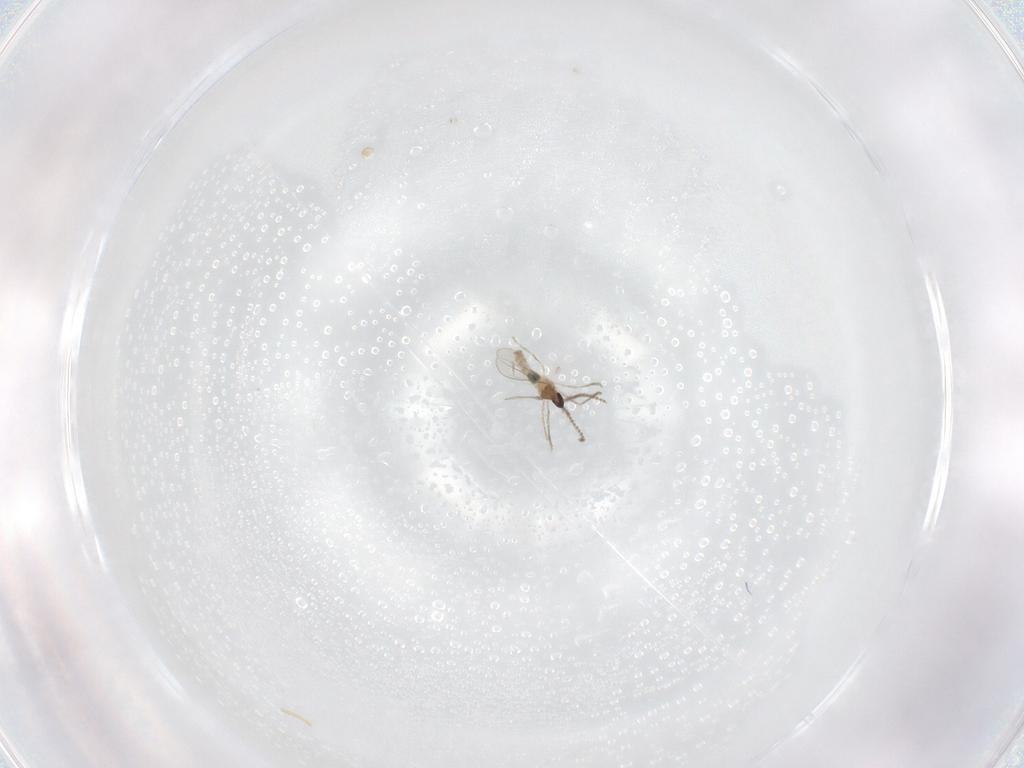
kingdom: Animalia
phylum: Arthropoda
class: Insecta
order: Diptera
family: Cecidomyiidae
